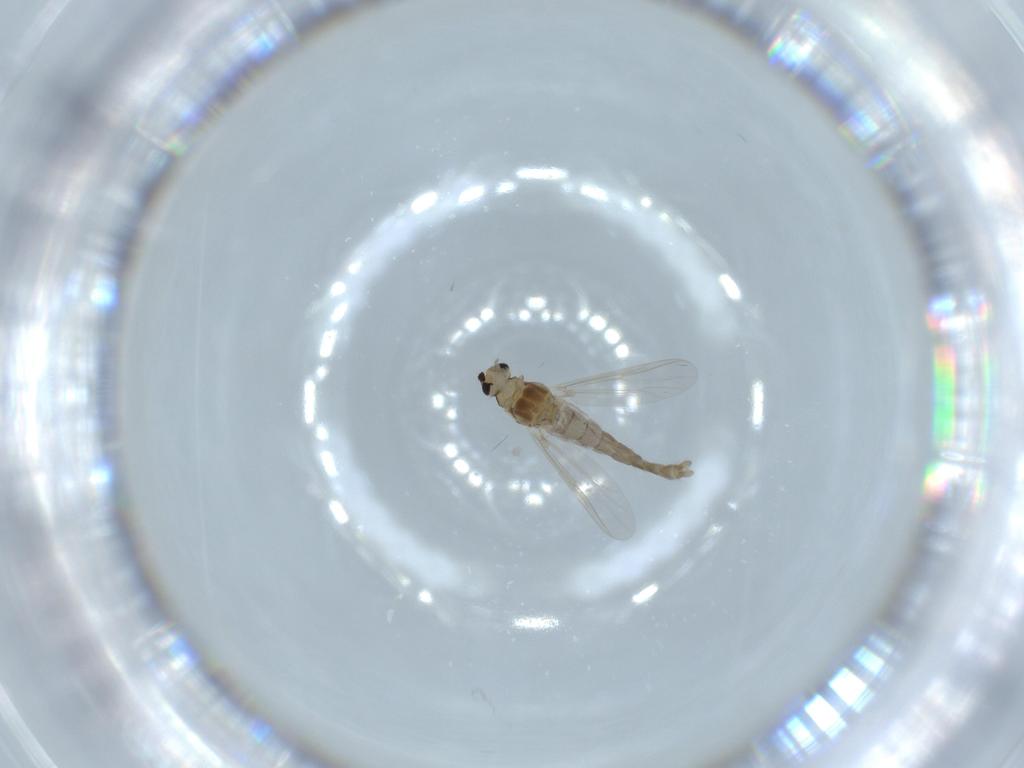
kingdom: Animalia
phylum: Arthropoda
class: Insecta
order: Diptera
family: Chironomidae
